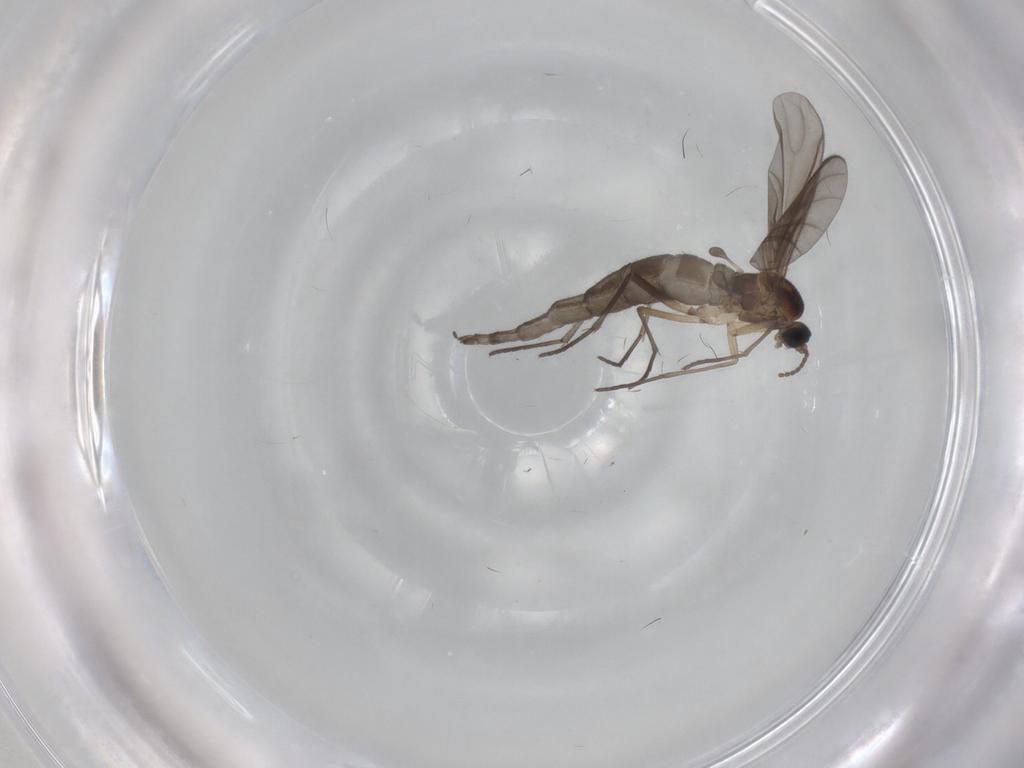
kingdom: Animalia
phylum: Arthropoda
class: Insecta
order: Diptera
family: Sciaridae
